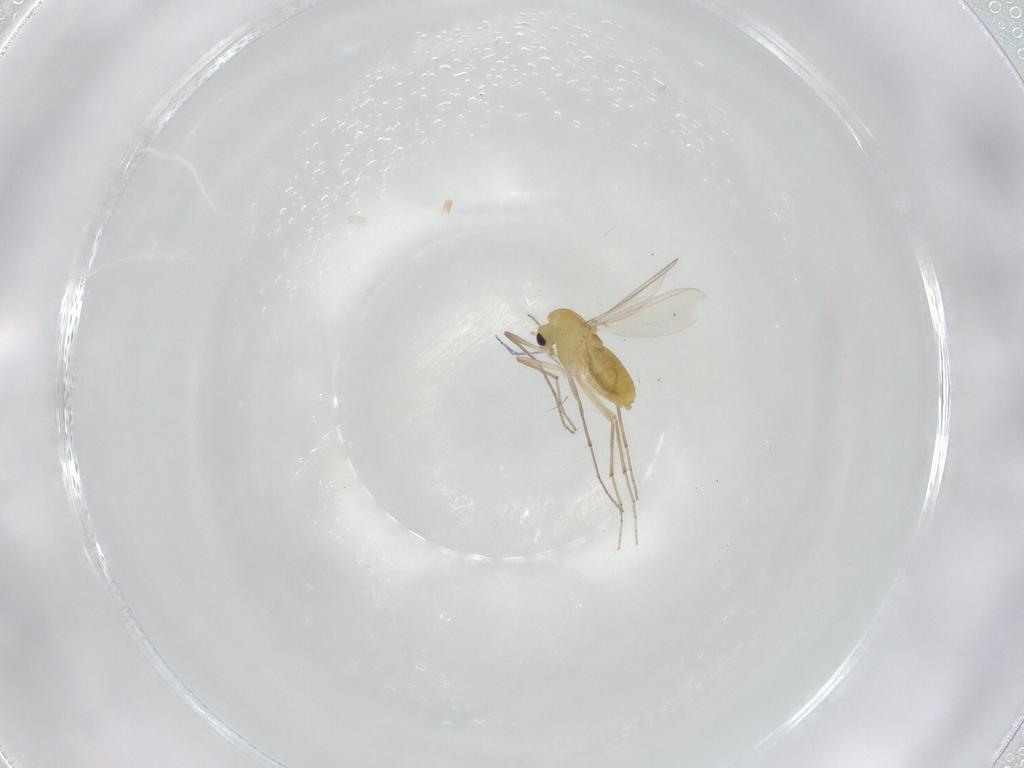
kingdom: Animalia
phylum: Arthropoda
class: Insecta
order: Diptera
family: Chironomidae
